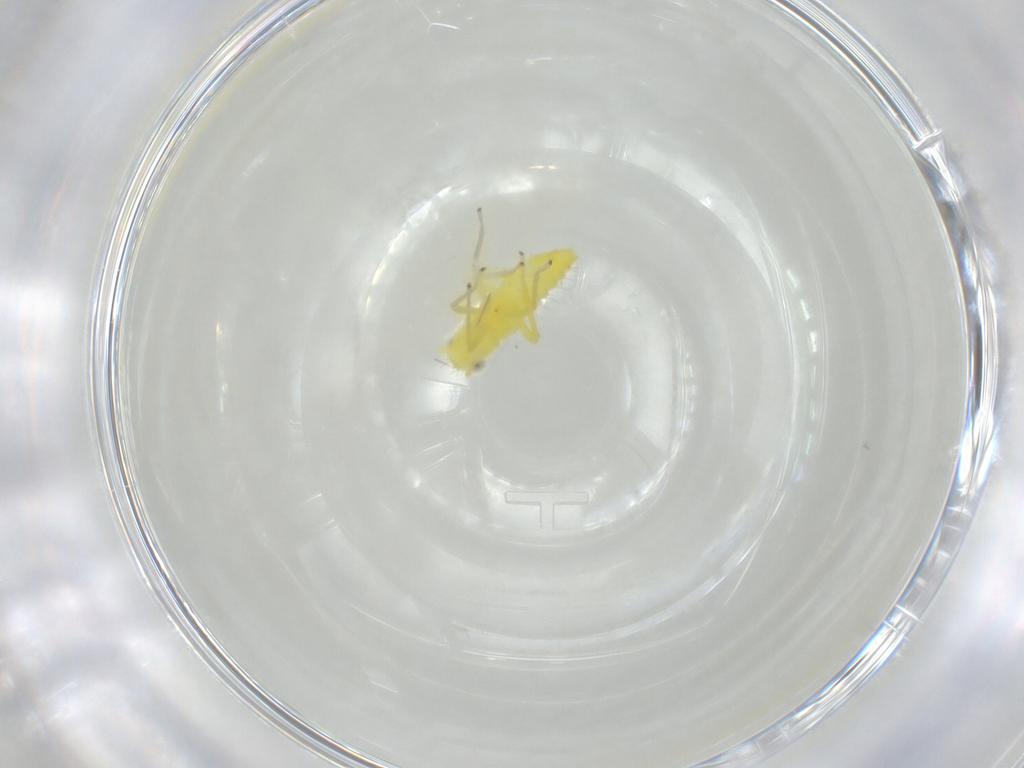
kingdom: Animalia
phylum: Arthropoda
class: Insecta
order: Hemiptera
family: Cicadellidae
